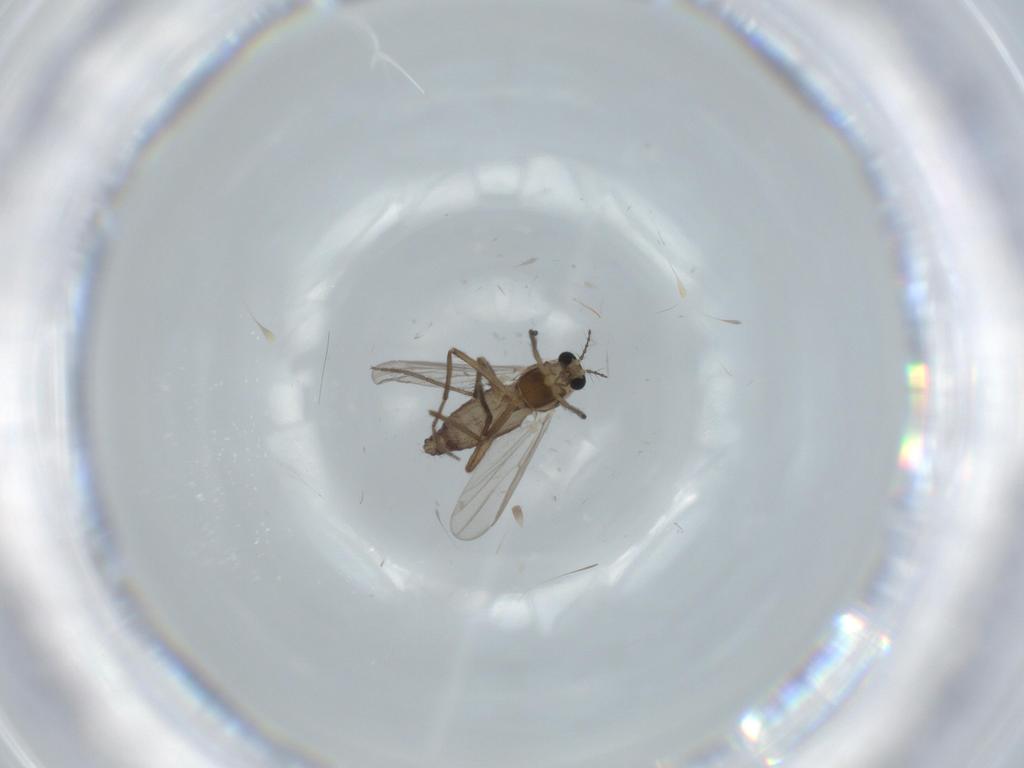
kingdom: Animalia
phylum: Arthropoda
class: Insecta
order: Diptera
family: Chironomidae
